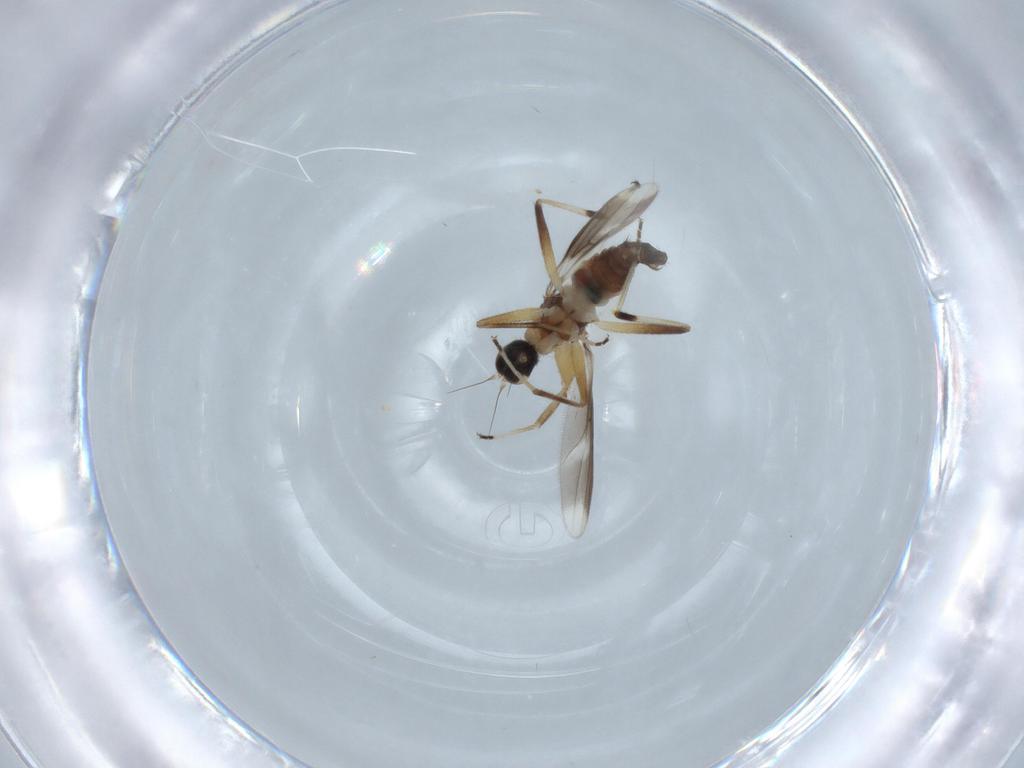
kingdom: Animalia
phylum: Arthropoda
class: Insecta
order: Diptera
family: Hybotidae
